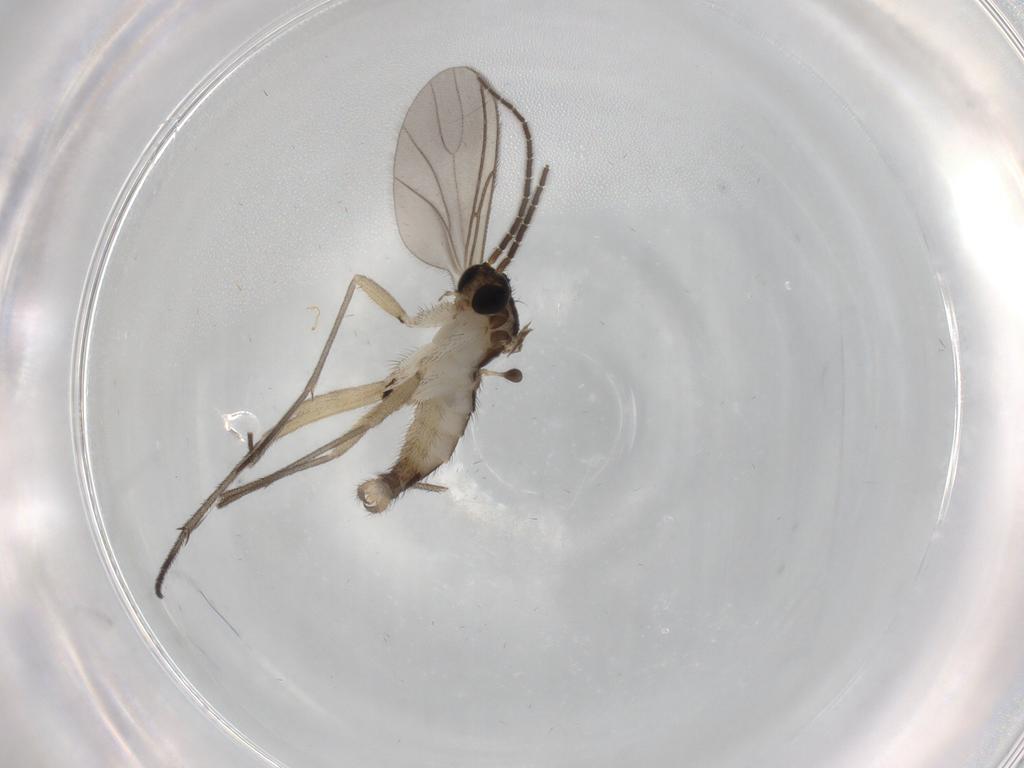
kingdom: Animalia
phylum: Arthropoda
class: Insecta
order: Diptera
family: Sciaridae
